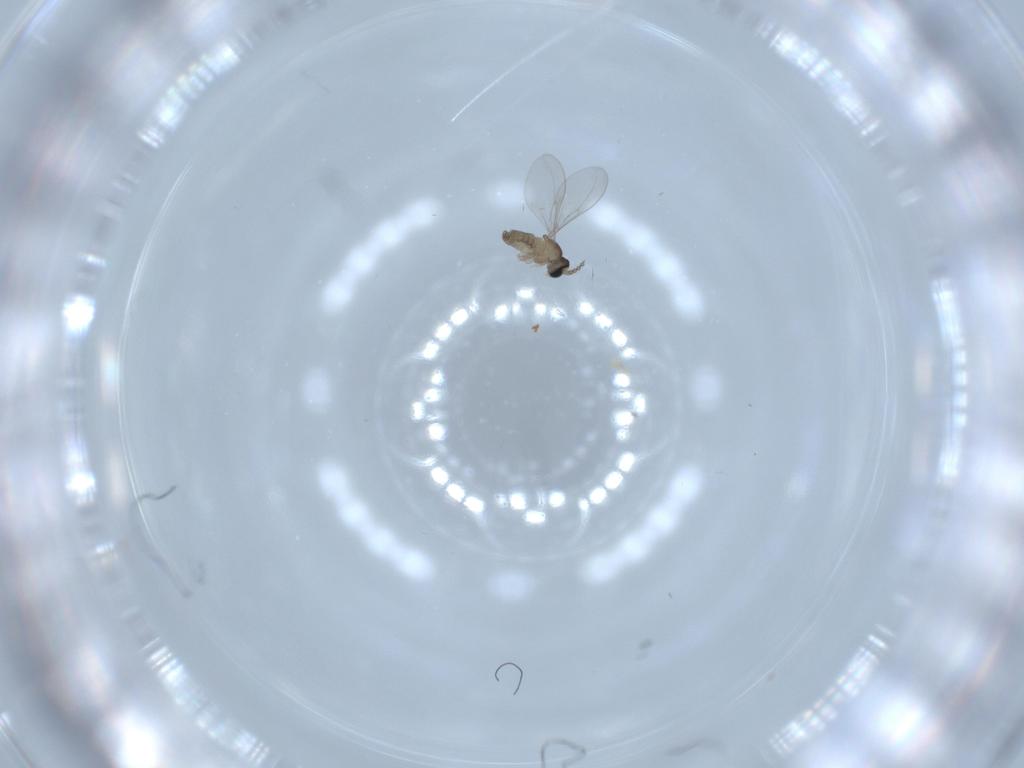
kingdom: Animalia
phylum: Arthropoda
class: Insecta
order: Diptera
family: Cecidomyiidae
